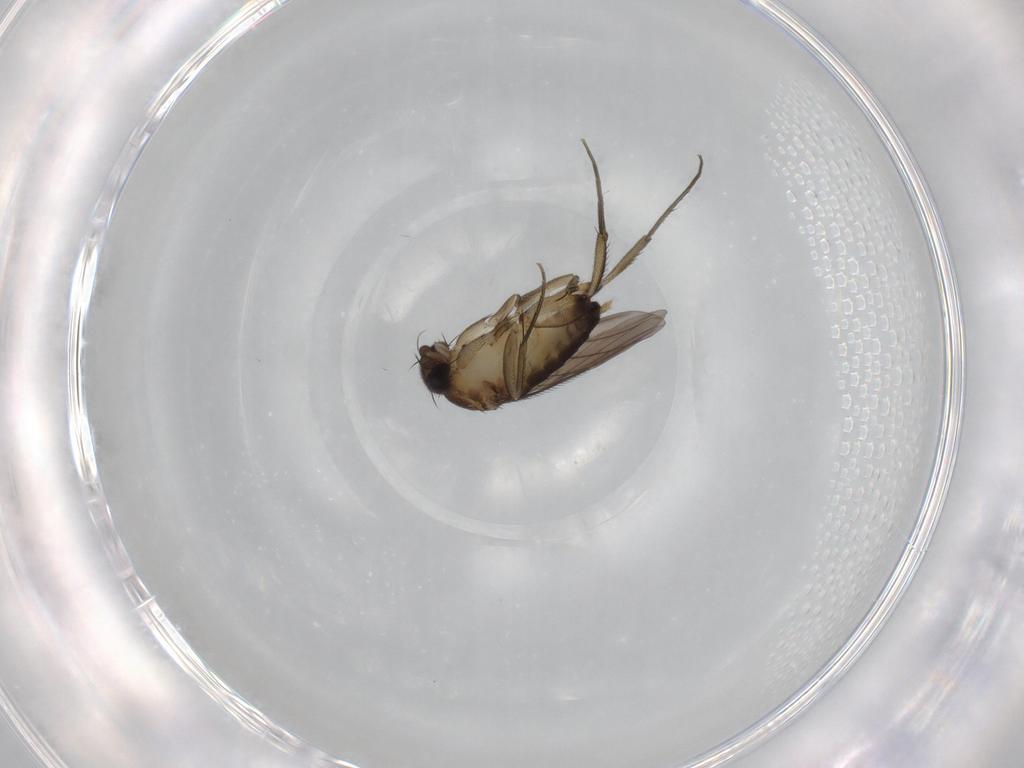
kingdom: Animalia
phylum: Arthropoda
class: Insecta
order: Diptera
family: Phoridae
